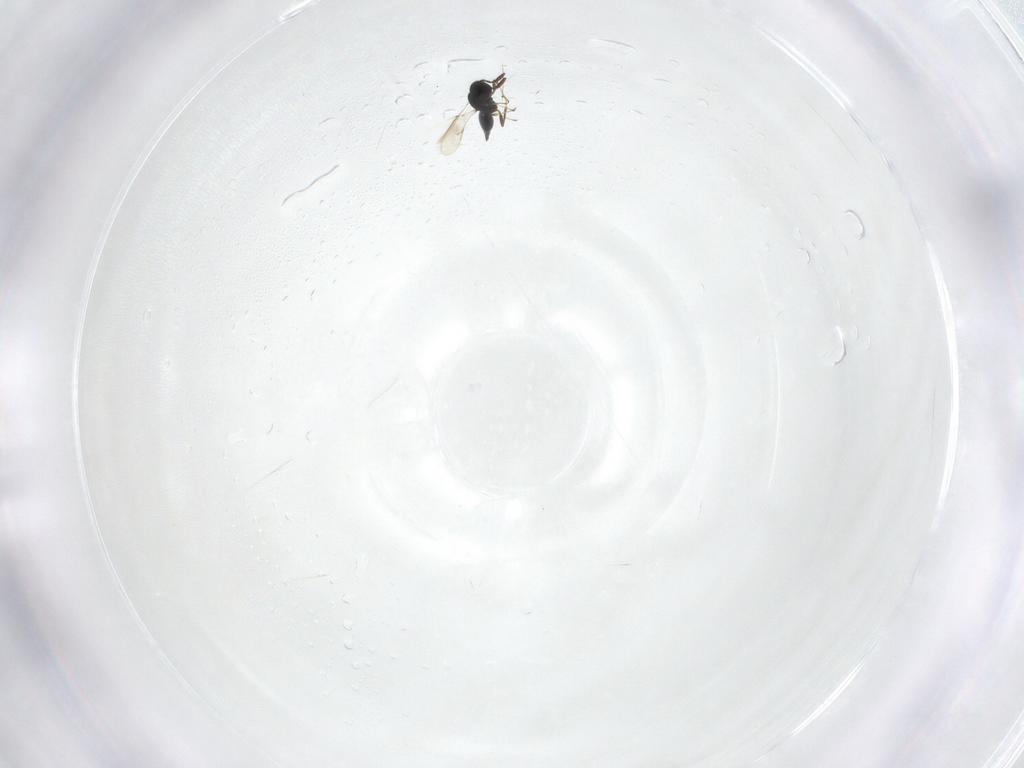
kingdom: Animalia
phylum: Arthropoda
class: Insecta
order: Hymenoptera
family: Scelionidae
